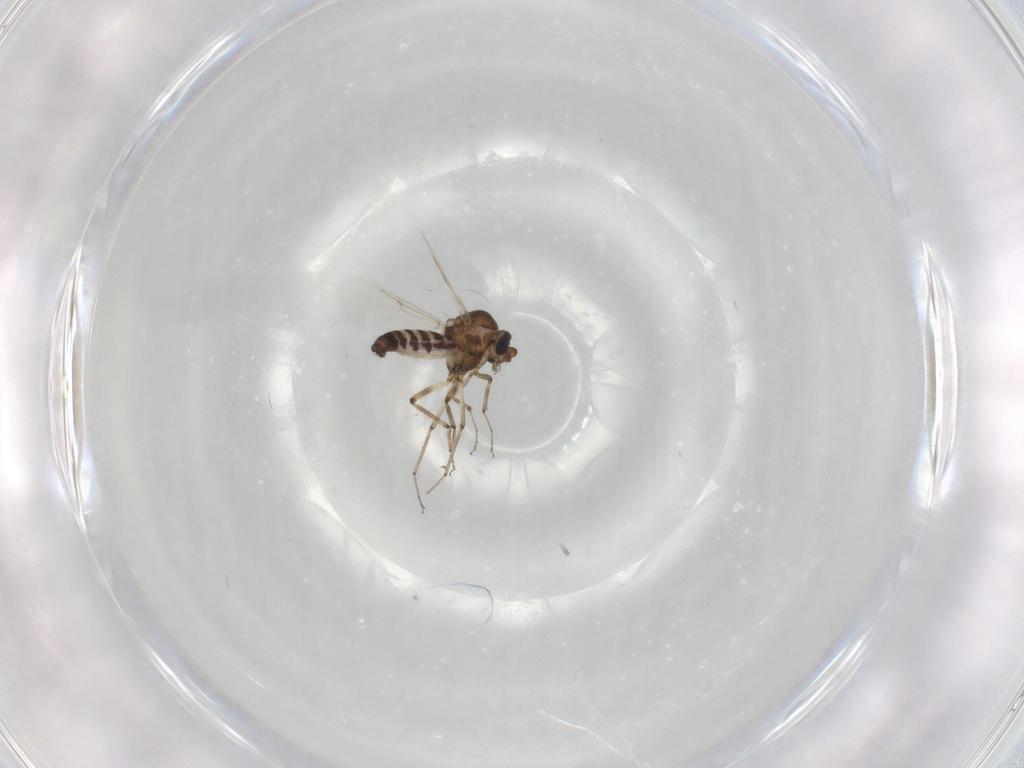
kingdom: Animalia
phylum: Arthropoda
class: Insecta
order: Diptera
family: Ceratopogonidae
